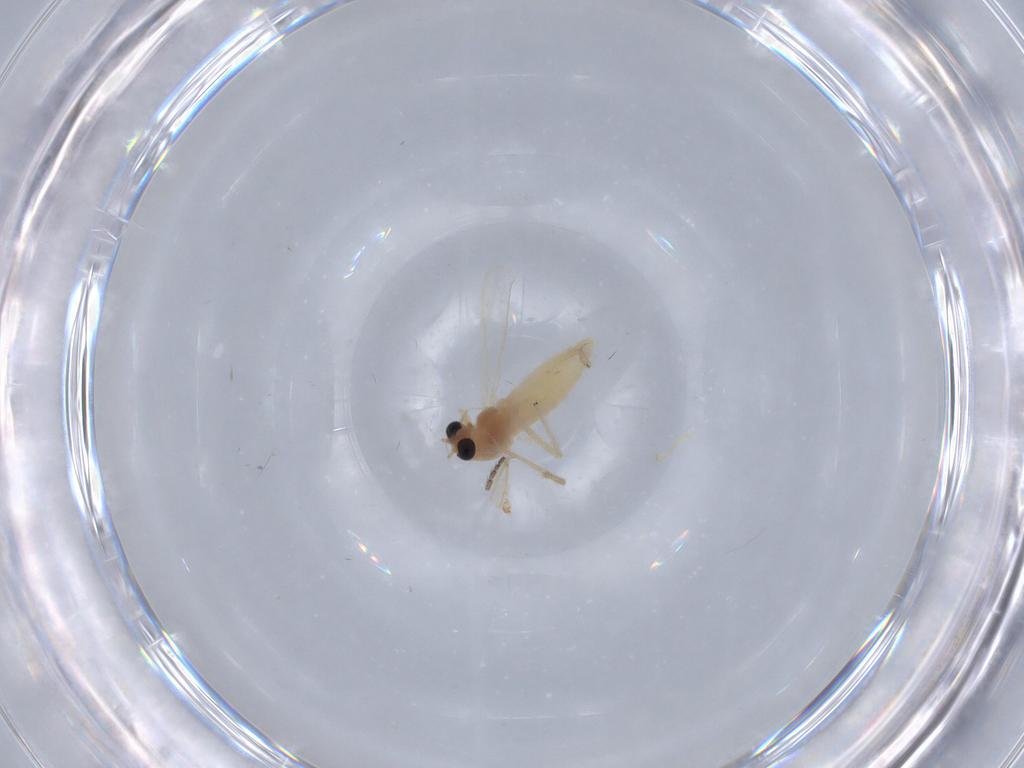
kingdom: Animalia
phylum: Arthropoda
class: Insecta
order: Diptera
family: Chironomidae
